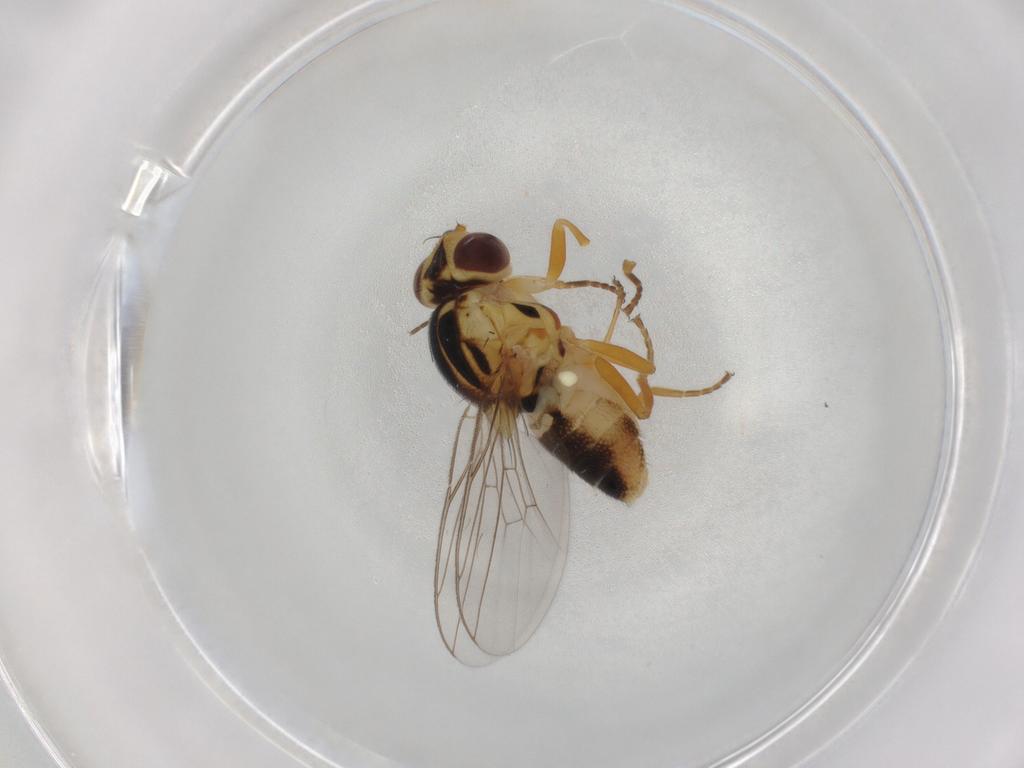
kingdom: Animalia
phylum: Arthropoda
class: Insecta
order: Diptera
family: Chloropidae
